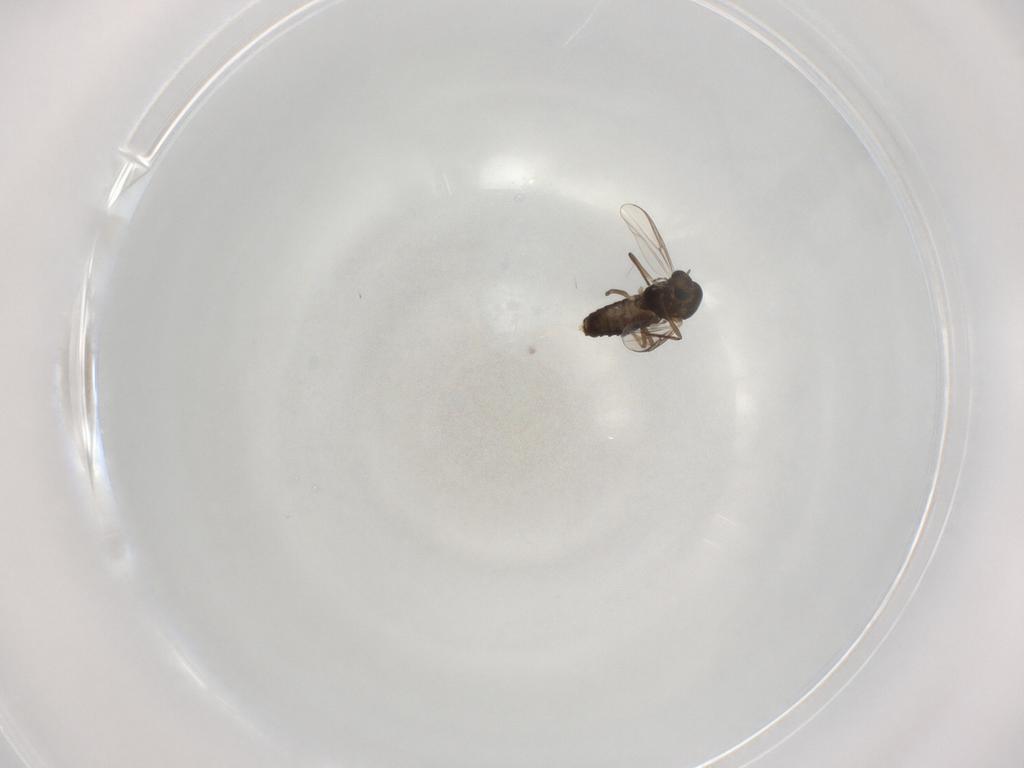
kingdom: Animalia
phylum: Arthropoda
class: Insecta
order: Diptera
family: Chironomidae
